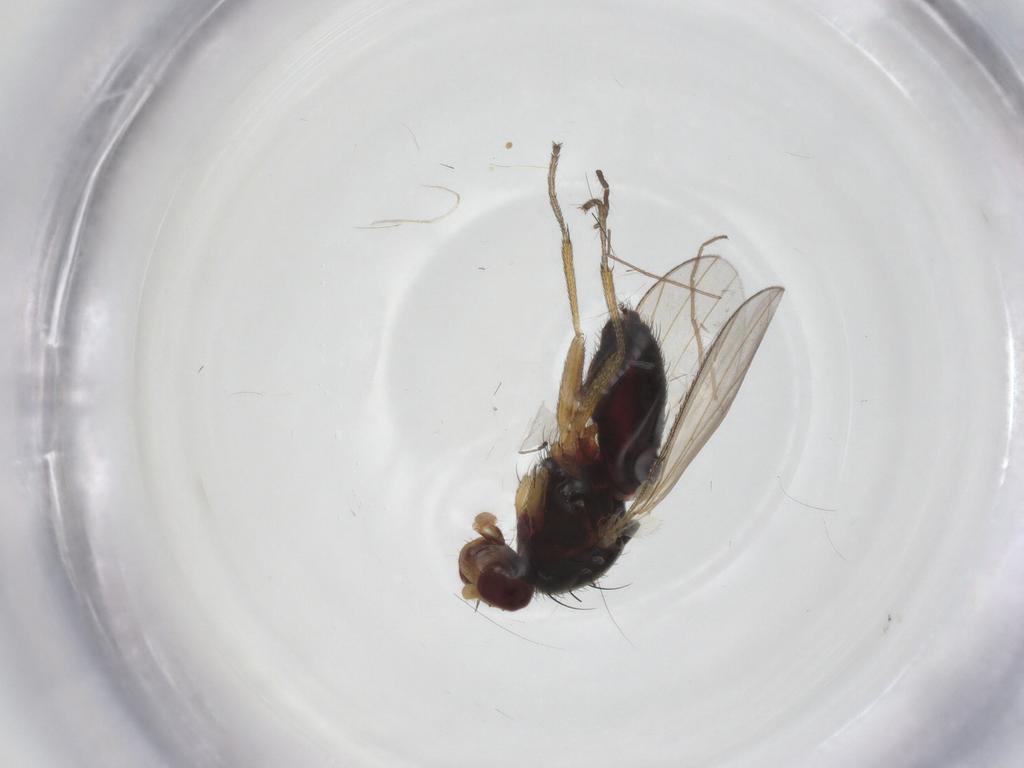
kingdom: Animalia
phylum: Arthropoda
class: Insecta
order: Diptera
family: Heleomyzidae
